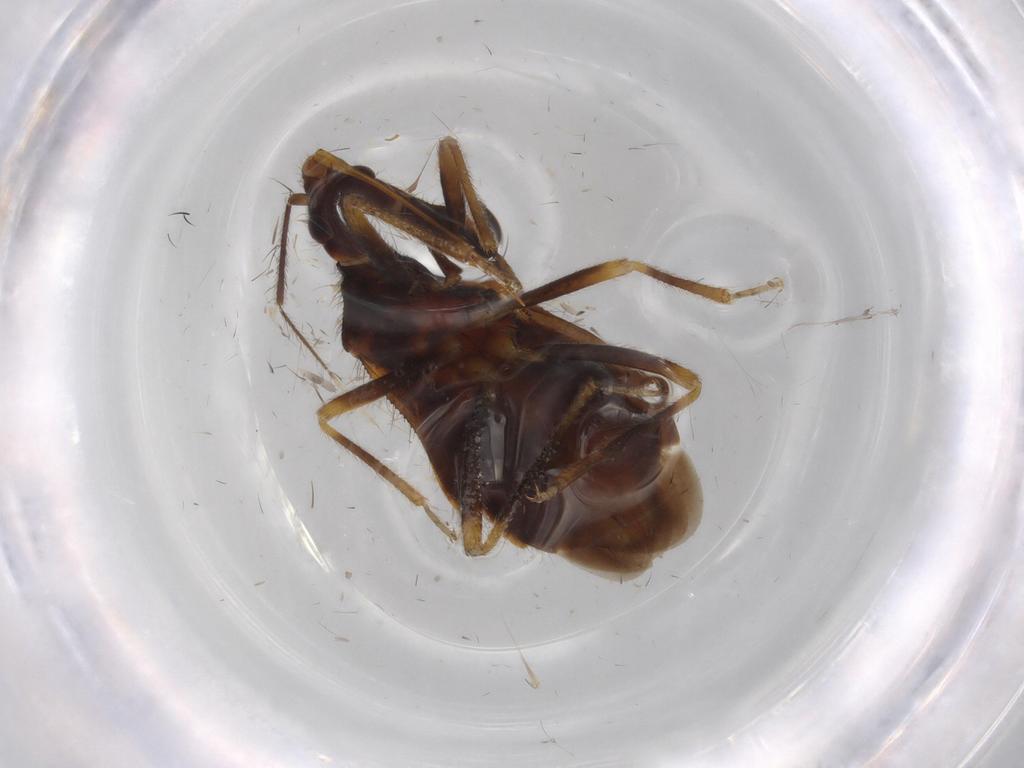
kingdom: Animalia
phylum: Arthropoda
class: Insecta
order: Hemiptera
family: Anthocoridae
